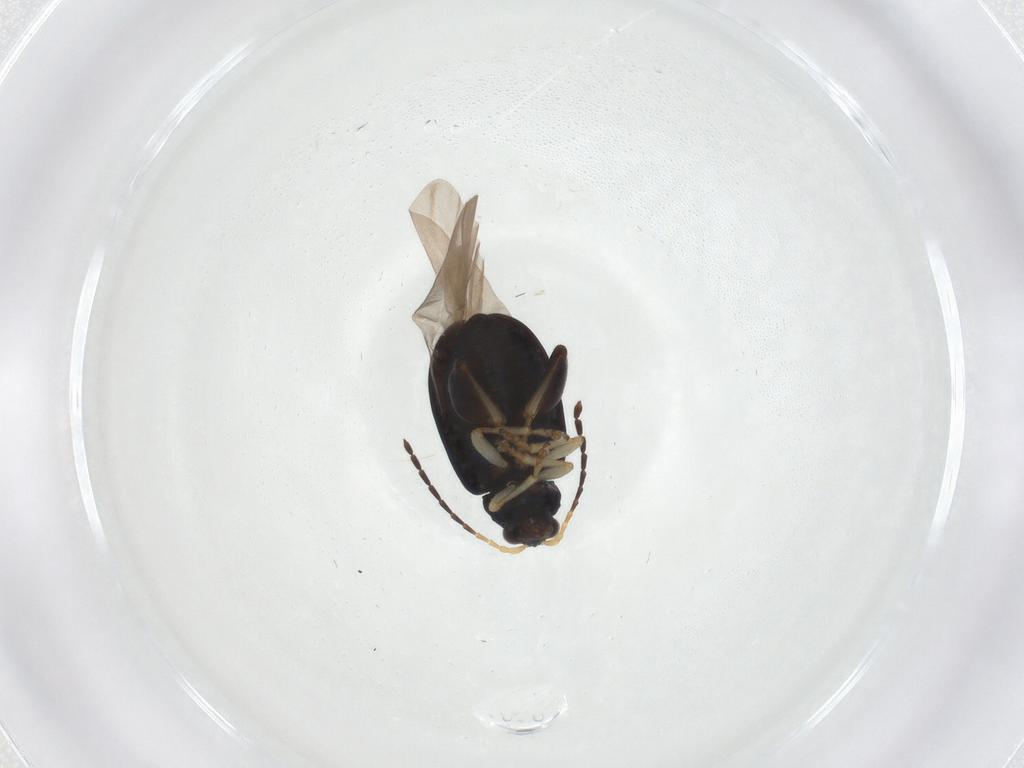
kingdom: Animalia
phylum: Arthropoda
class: Insecta
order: Coleoptera
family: Chrysomelidae
